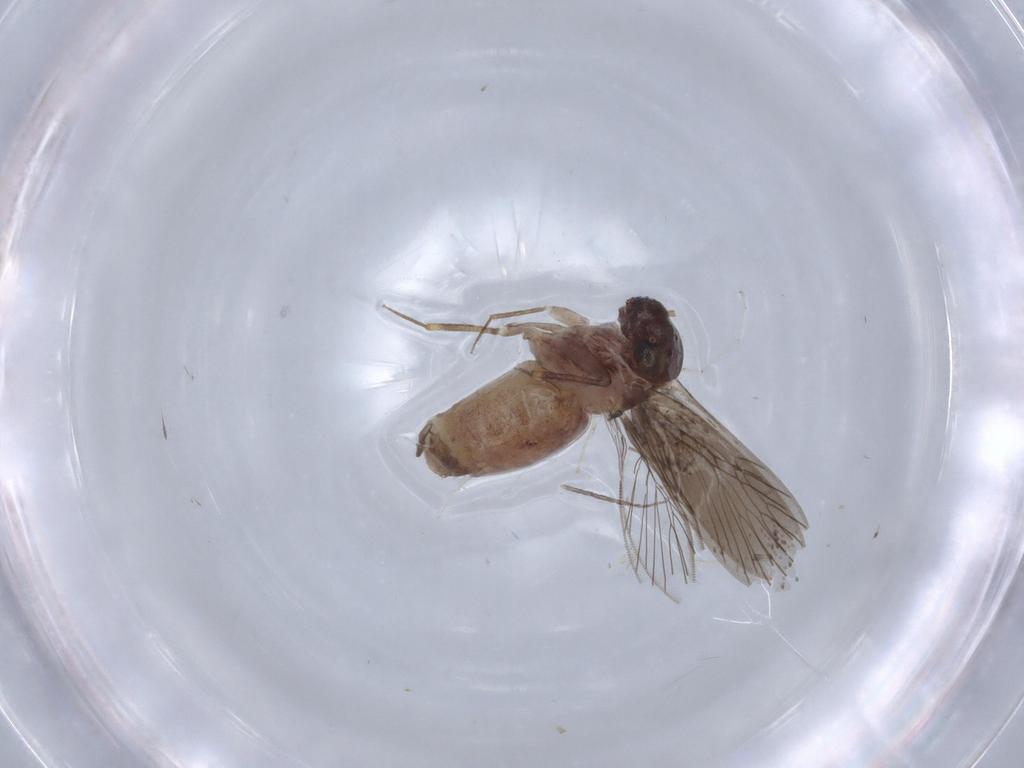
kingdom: Animalia
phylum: Arthropoda
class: Insecta
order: Psocodea
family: Lepidopsocidae
